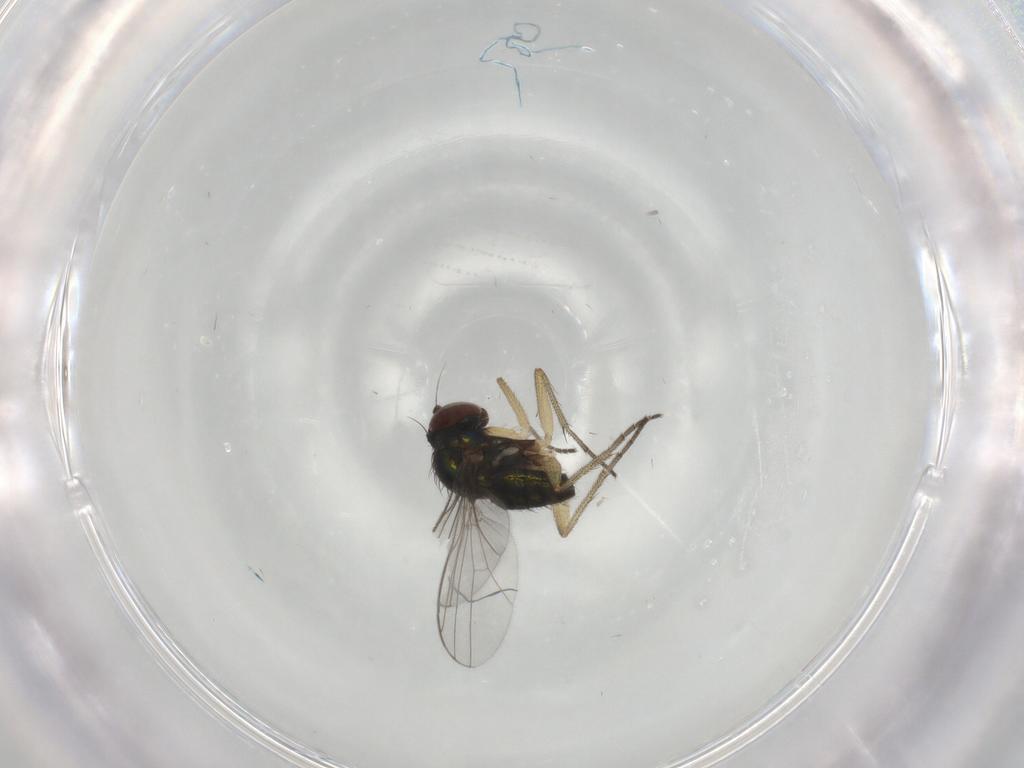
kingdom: Animalia
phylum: Arthropoda
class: Insecta
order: Diptera
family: Dolichopodidae
